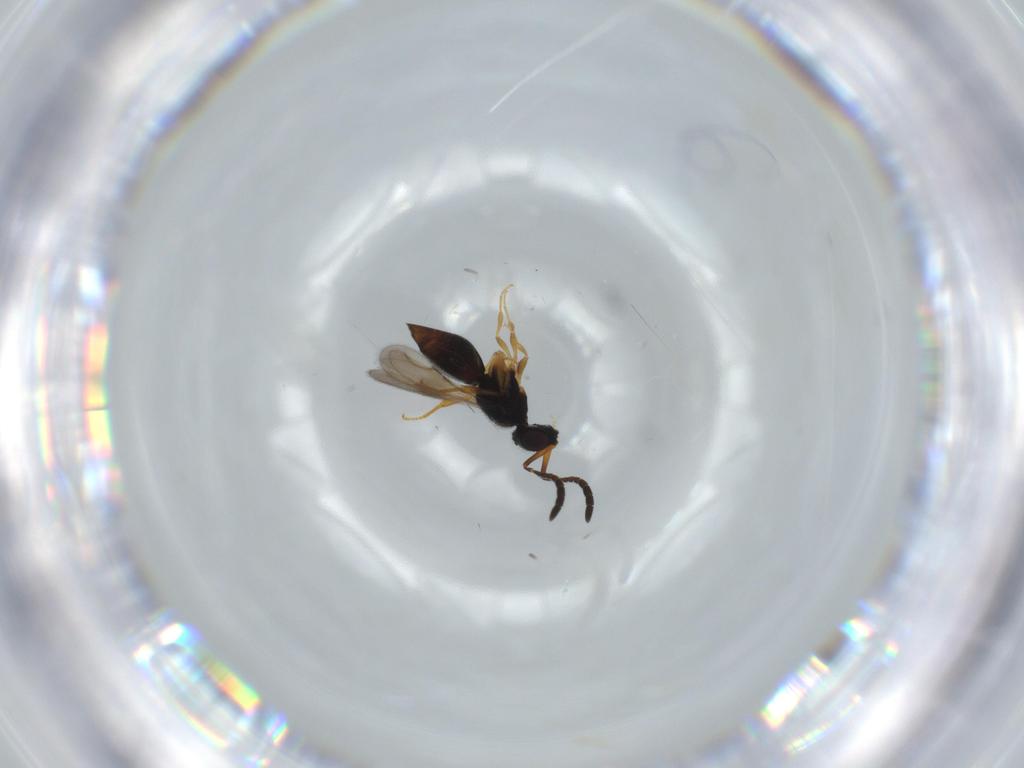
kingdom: Animalia
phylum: Arthropoda
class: Insecta
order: Hymenoptera
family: Ceraphronidae
